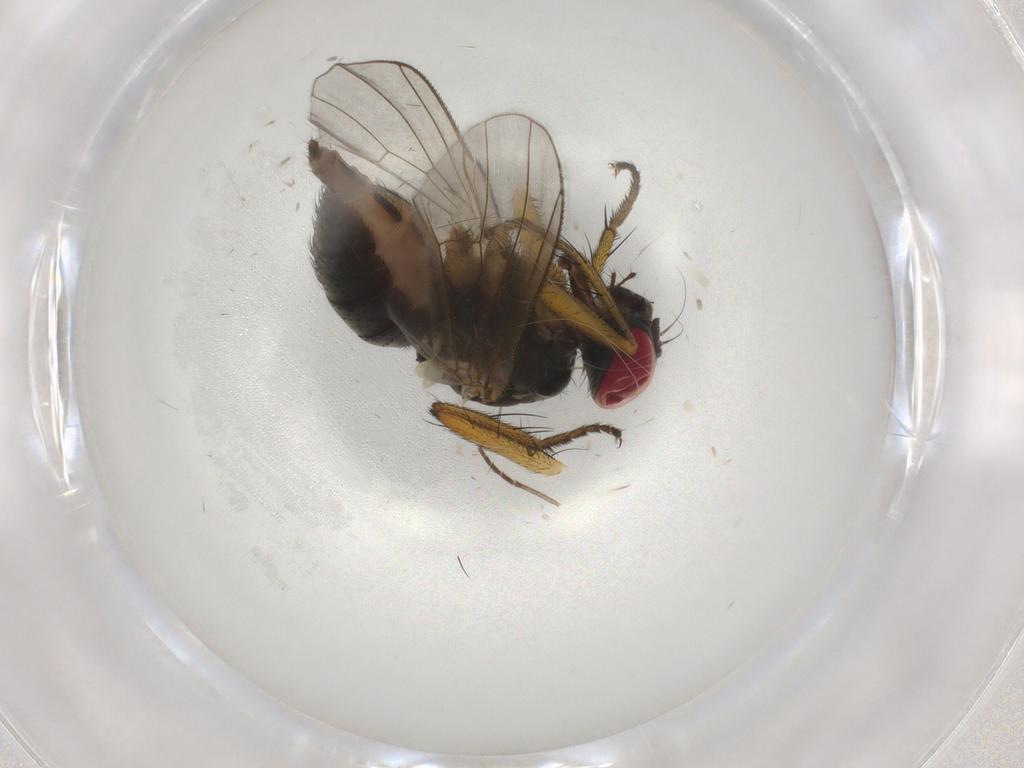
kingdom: Animalia
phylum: Arthropoda
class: Insecta
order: Diptera
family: Muscidae
